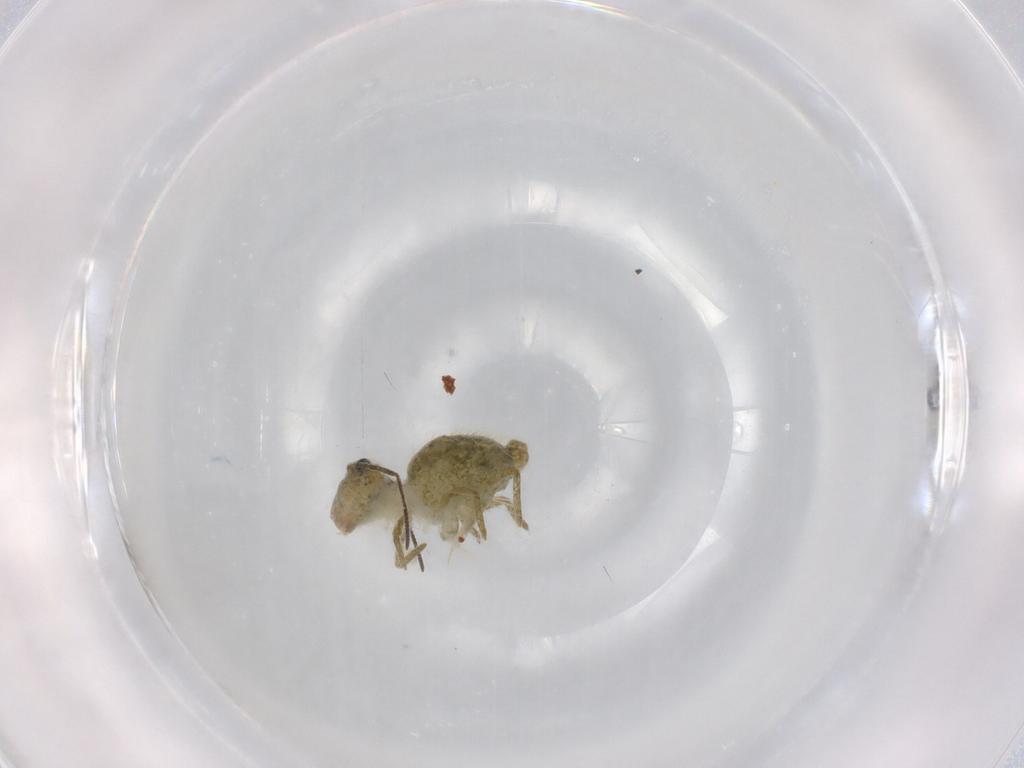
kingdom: Animalia
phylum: Arthropoda
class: Collembola
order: Symphypleona
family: Sminthuridae
